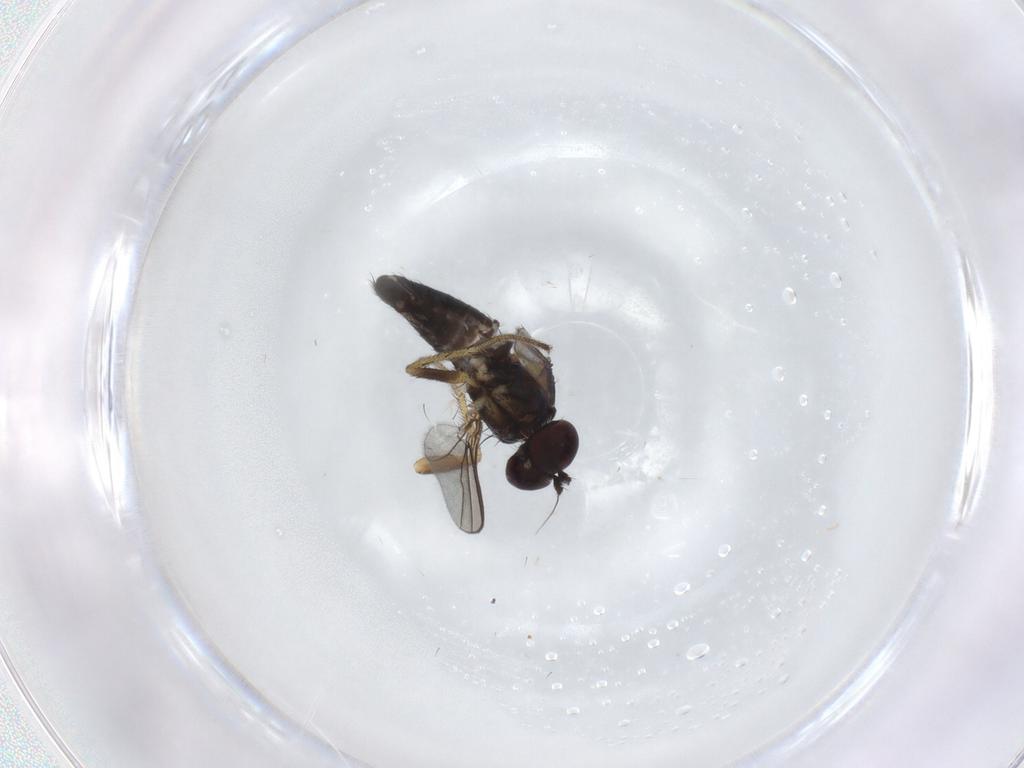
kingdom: Animalia
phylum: Arthropoda
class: Insecta
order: Diptera
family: Dolichopodidae
